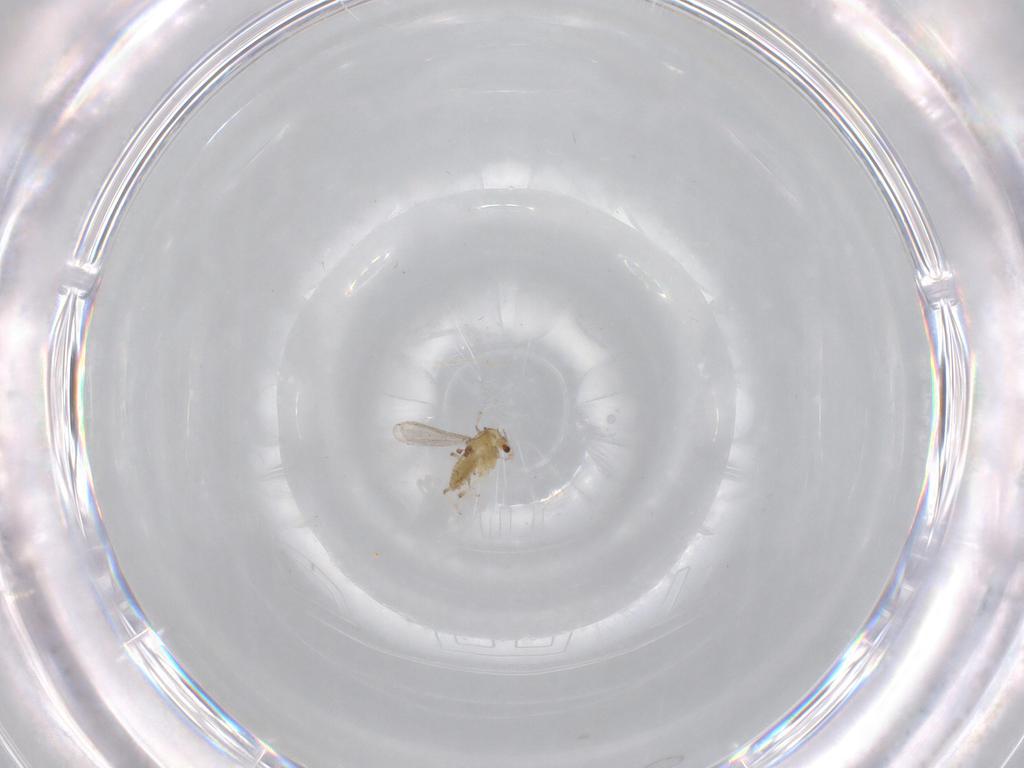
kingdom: Animalia
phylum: Arthropoda
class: Insecta
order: Diptera
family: Chironomidae
